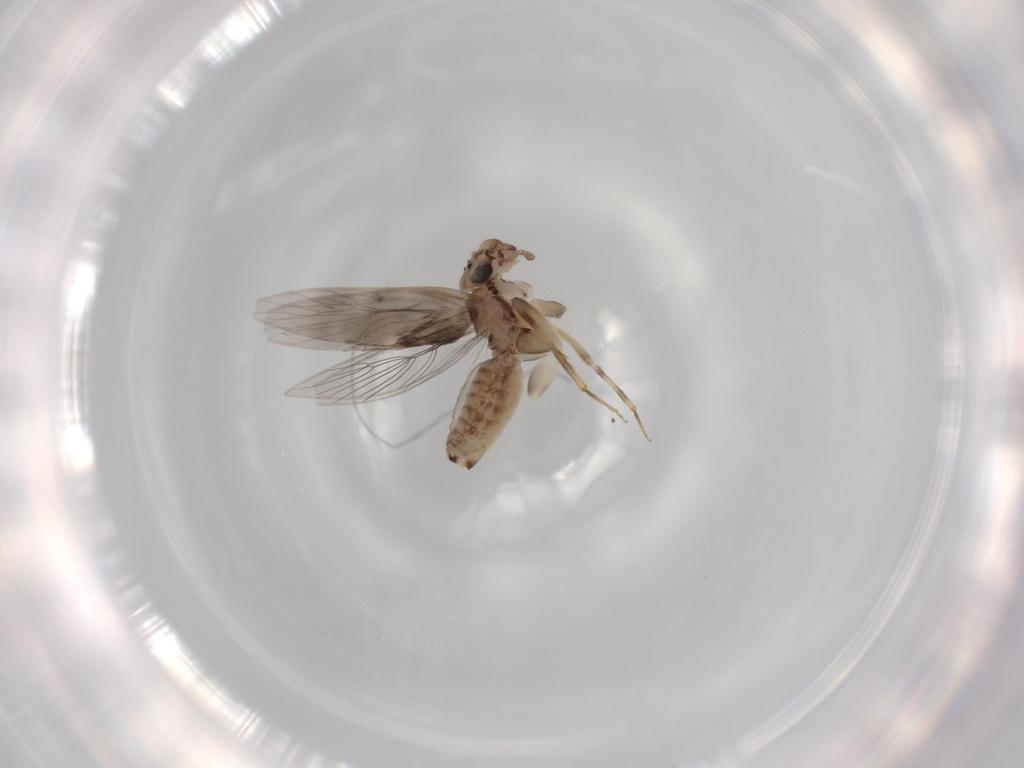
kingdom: Animalia
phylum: Arthropoda
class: Insecta
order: Psocodea
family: Lepidopsocidae
